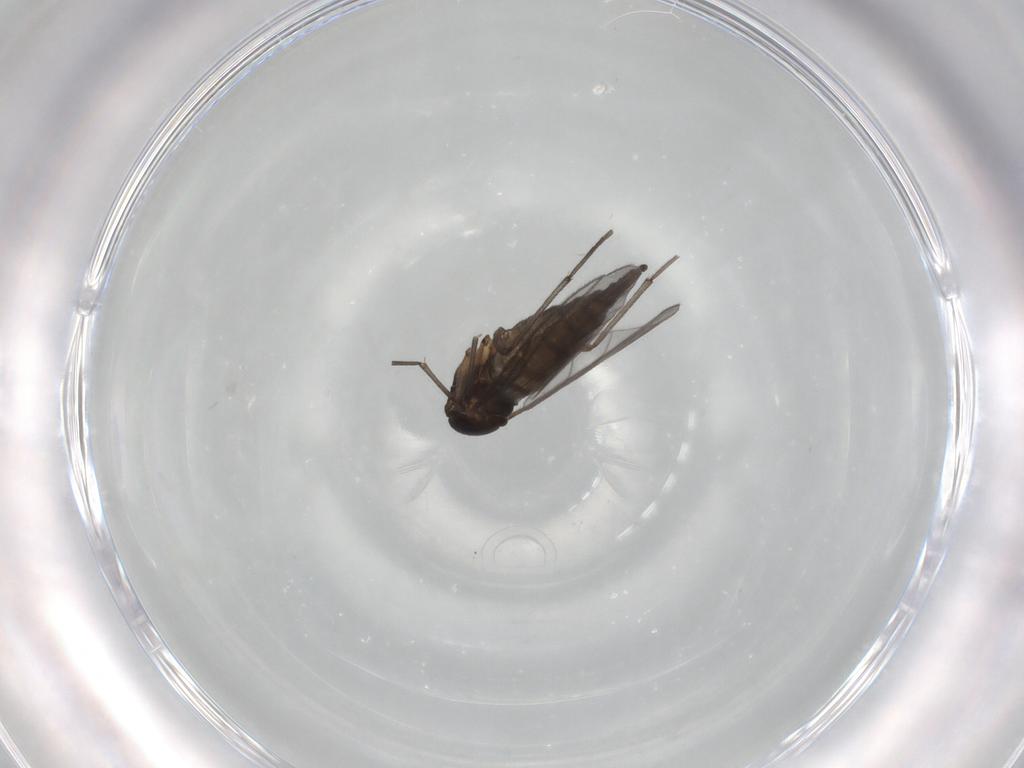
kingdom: Animalia
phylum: Arthropoda
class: Insecta
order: Diptera
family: Sciaridae
